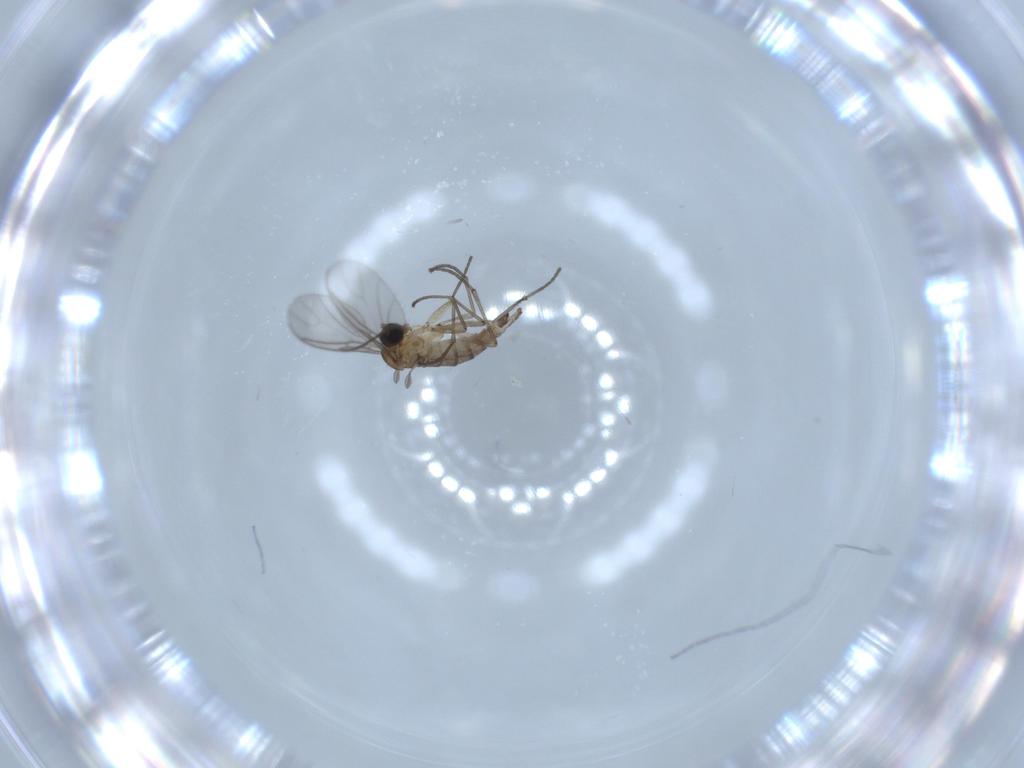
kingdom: Animalia
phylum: Arthropoda
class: Insecta
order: Diptera
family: Sciaridae
